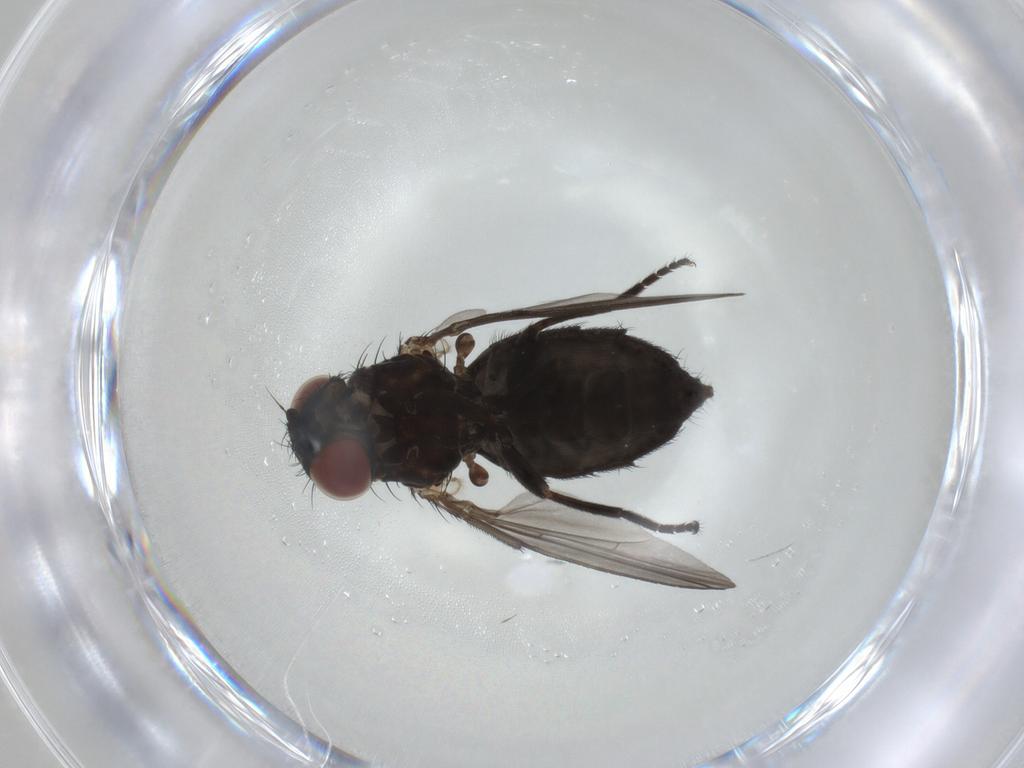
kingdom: Animalia
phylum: Arthropoda
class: Insecta
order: Diptera
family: Milichiidae
